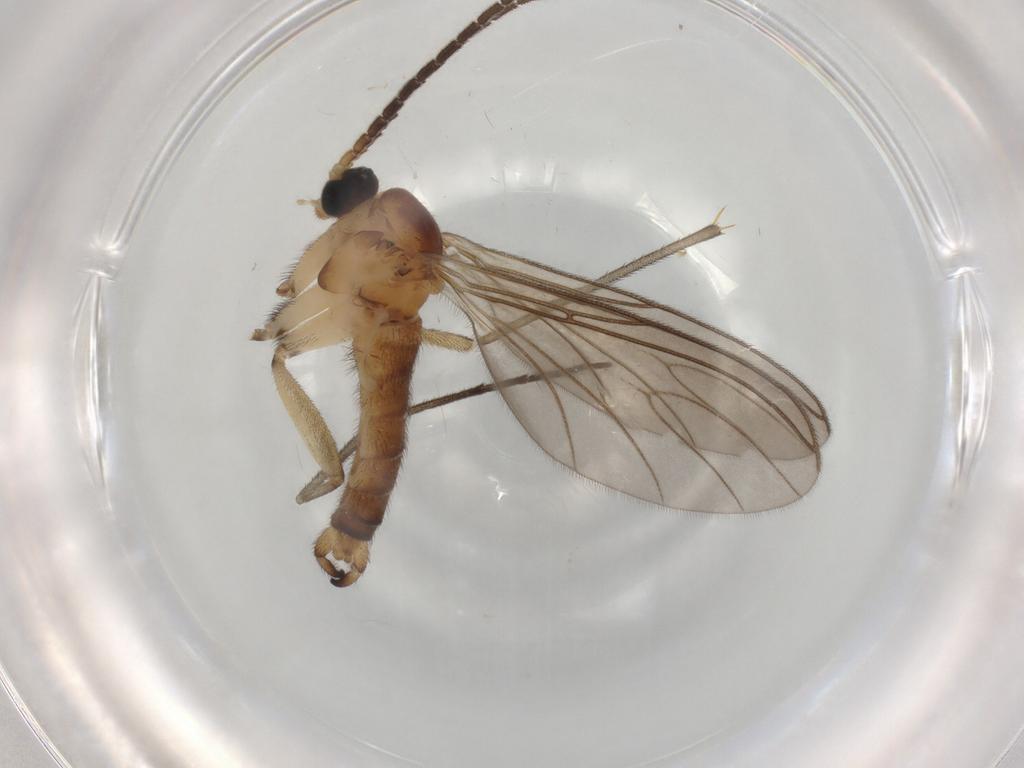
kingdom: Animalia
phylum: Arthropoda
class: Insecta
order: Diptera
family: Sciaridae
